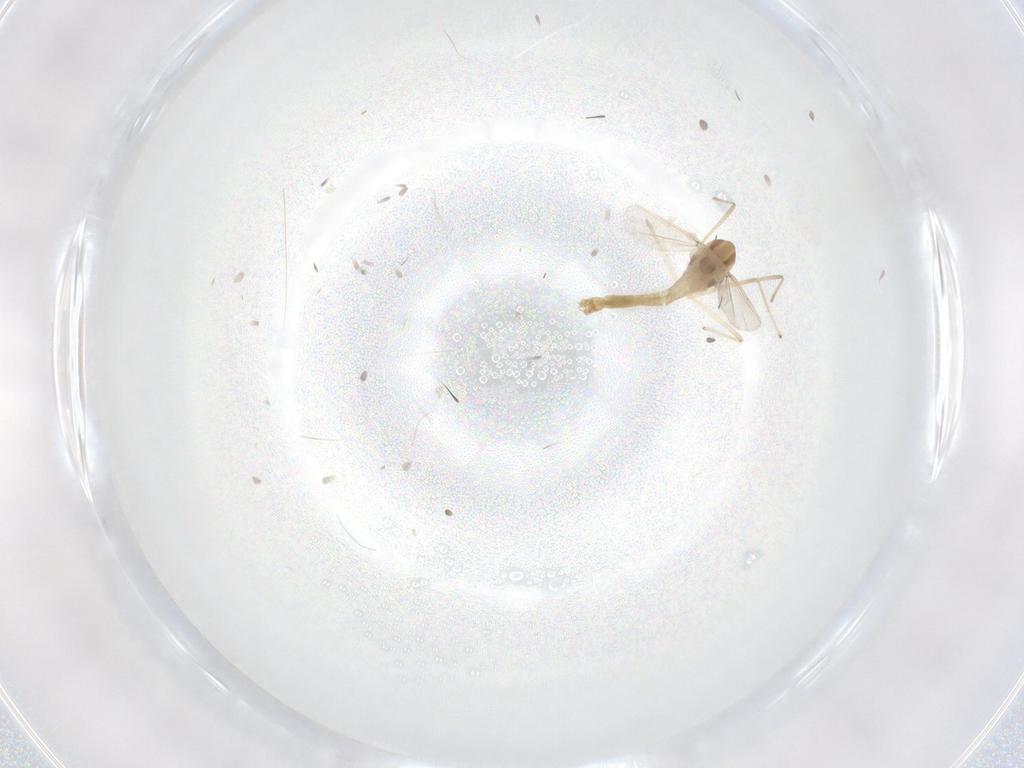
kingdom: Animalia
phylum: Arthropoda
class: Insecta
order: Diptera
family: Chironomidae
